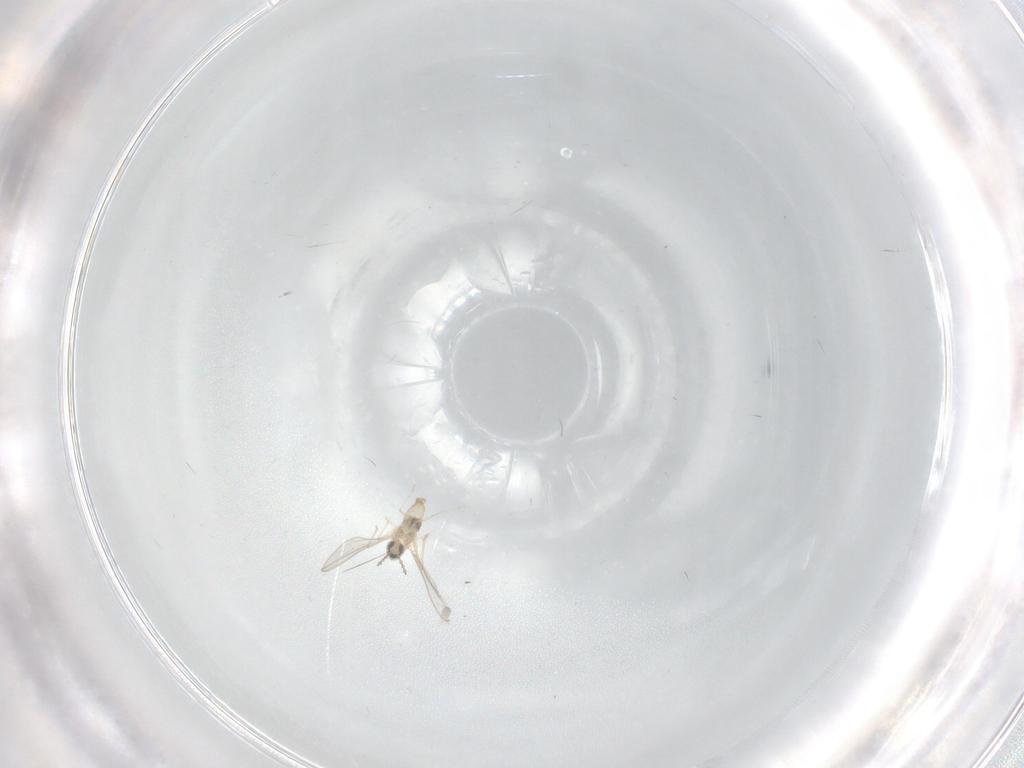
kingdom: Animalia
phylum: Arthropoda
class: Insecta
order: Diptera
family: Cecidomyiidae
